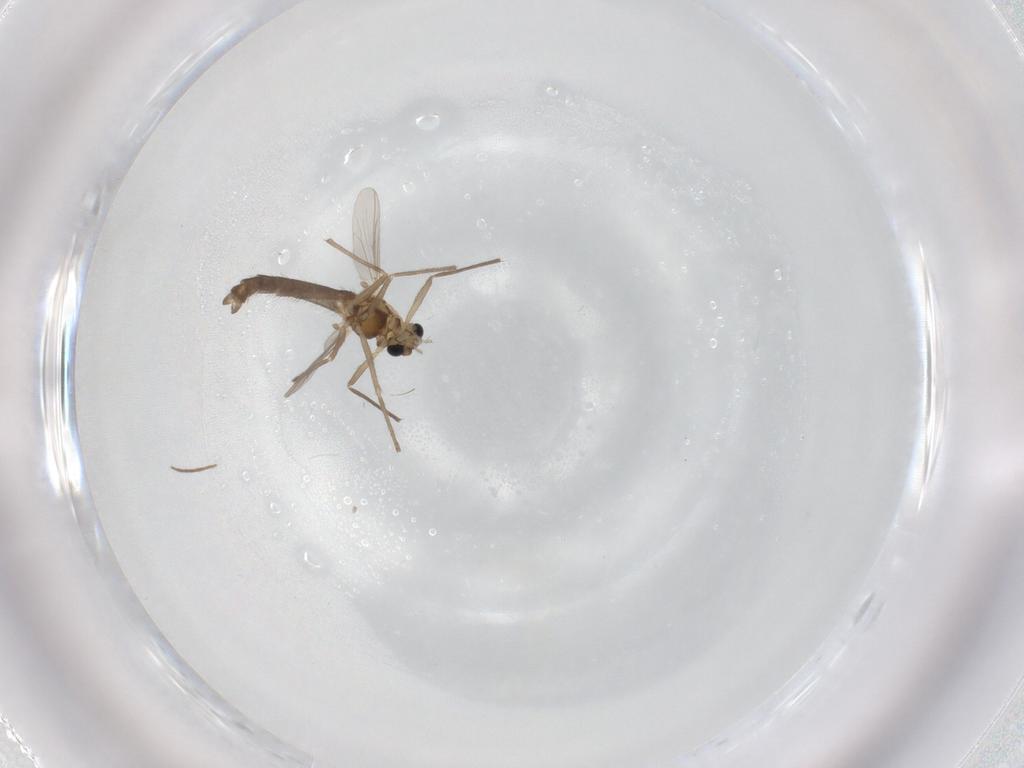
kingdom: Animalia
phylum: Arthropoda
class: Insecta
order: Diptera
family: Chironomidae
